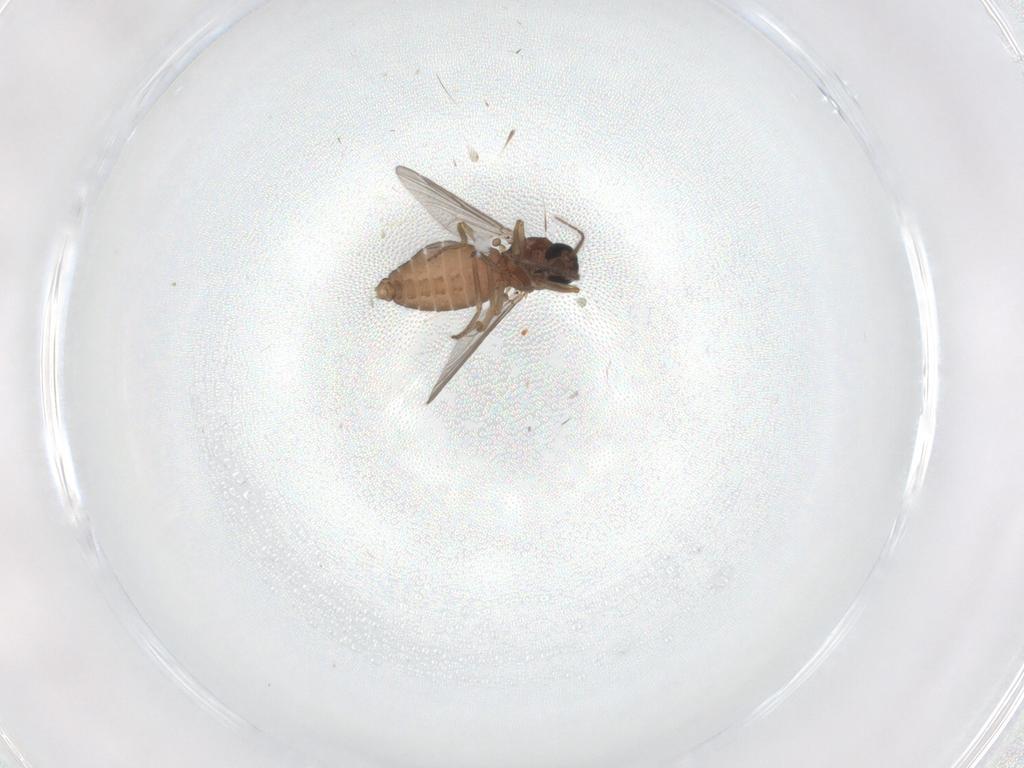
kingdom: Animalia
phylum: Arthropoda
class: Insecta
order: Diptera
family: Ceratopogonidae
